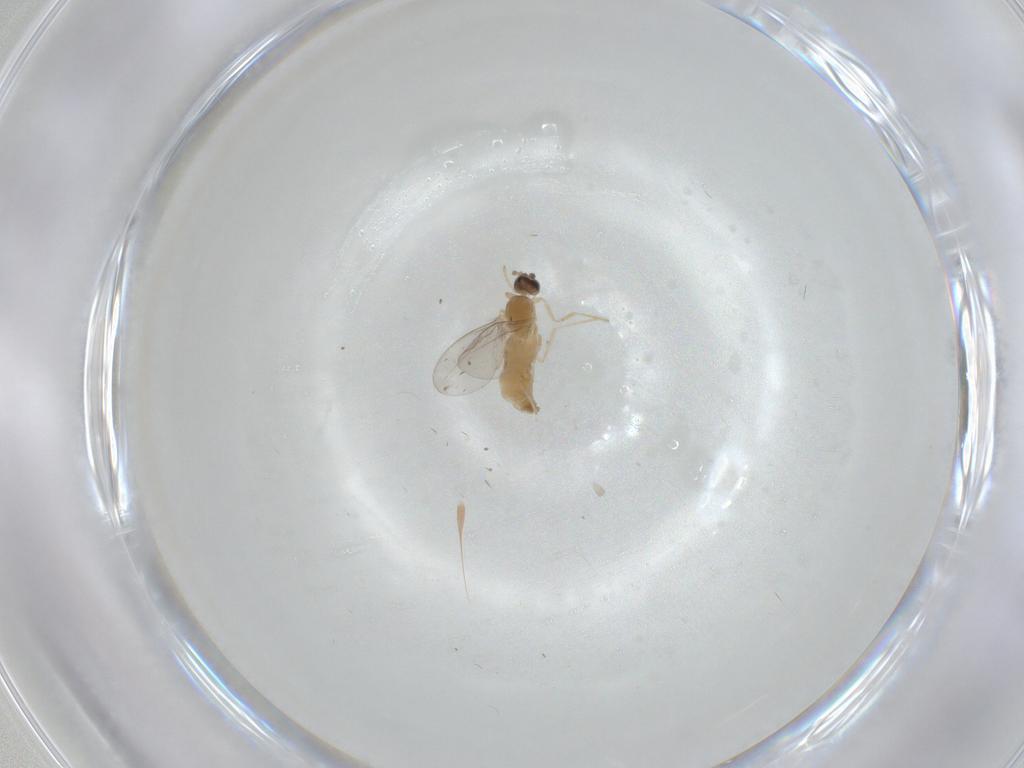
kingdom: Animalia
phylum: Arthropoda
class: Insecta
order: Diptera
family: Cecidomyiidae
